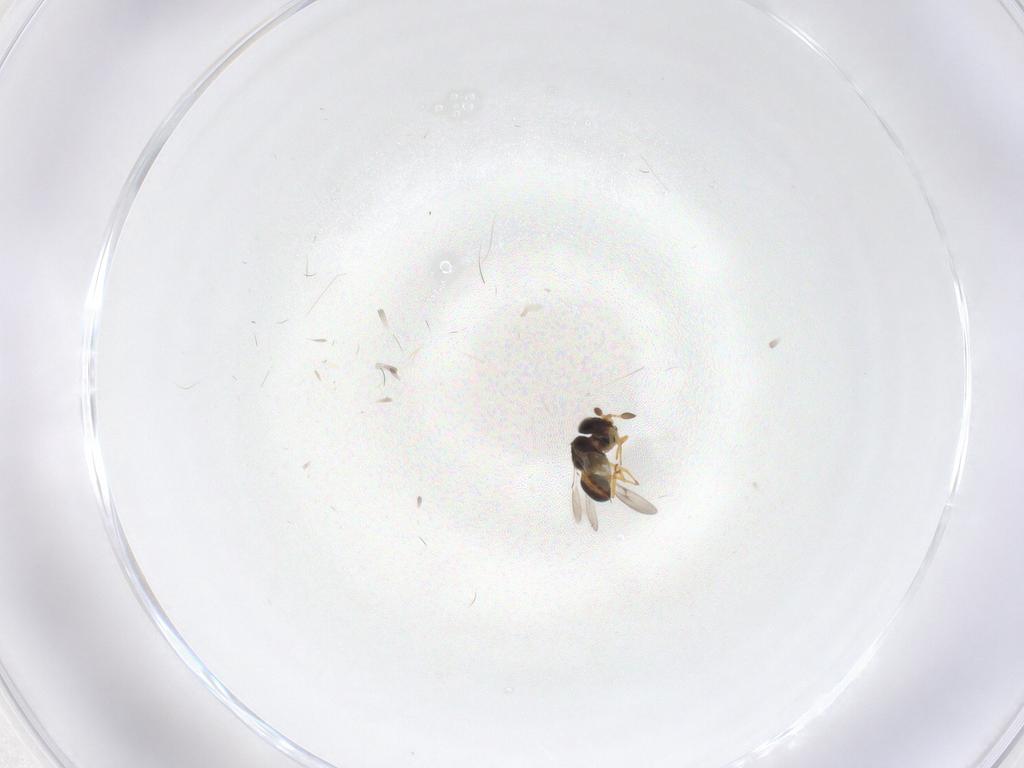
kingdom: Animalia
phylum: Arthropoda
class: Insecta
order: Hymenoptera
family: Scelionidae
